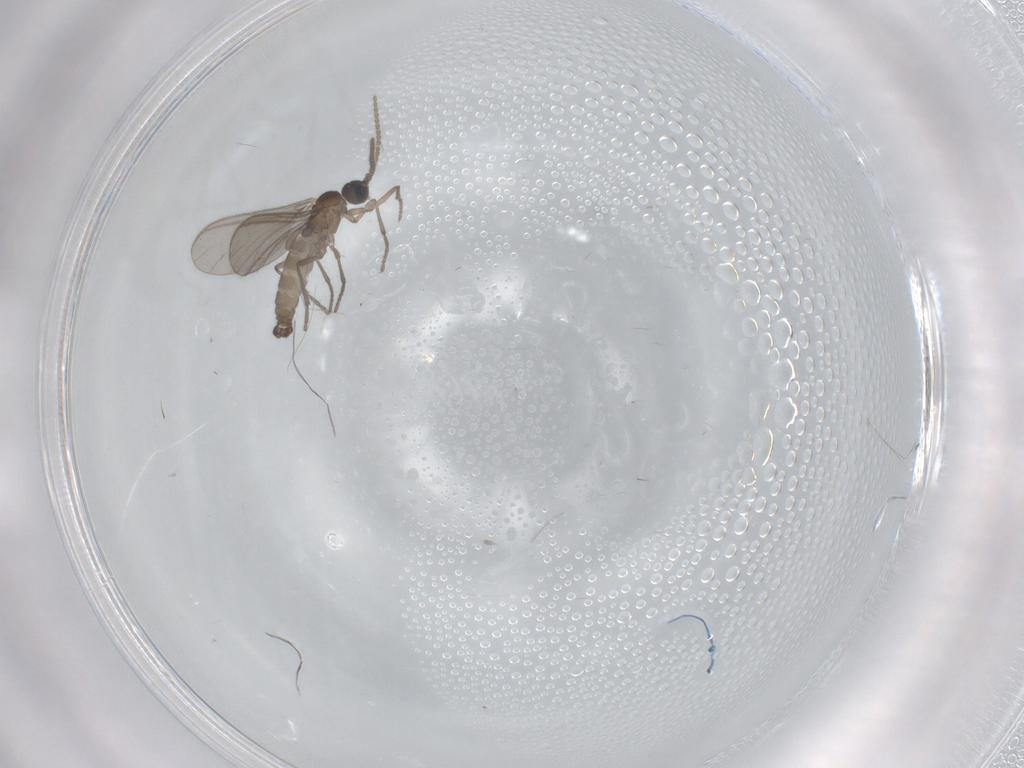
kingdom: Animalia
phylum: Arthropoda
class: Insecta
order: Diptera
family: Sciaridae
